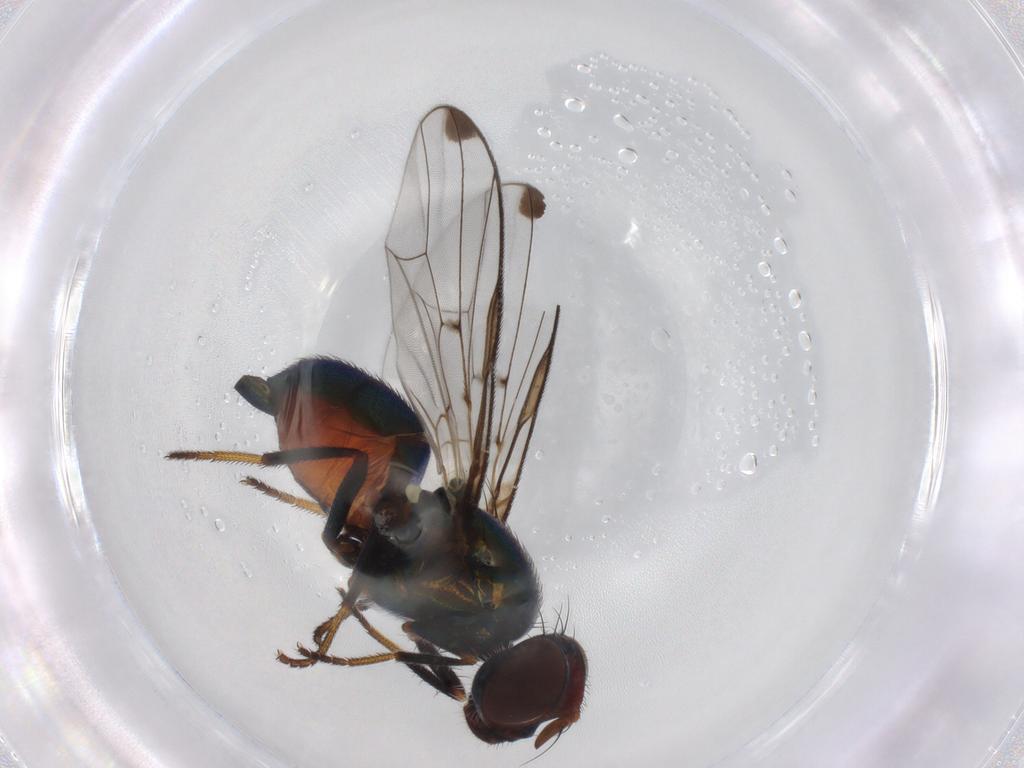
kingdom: Animalia
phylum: Arthropoda
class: Insecta
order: Diptera
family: Platystomatidae
